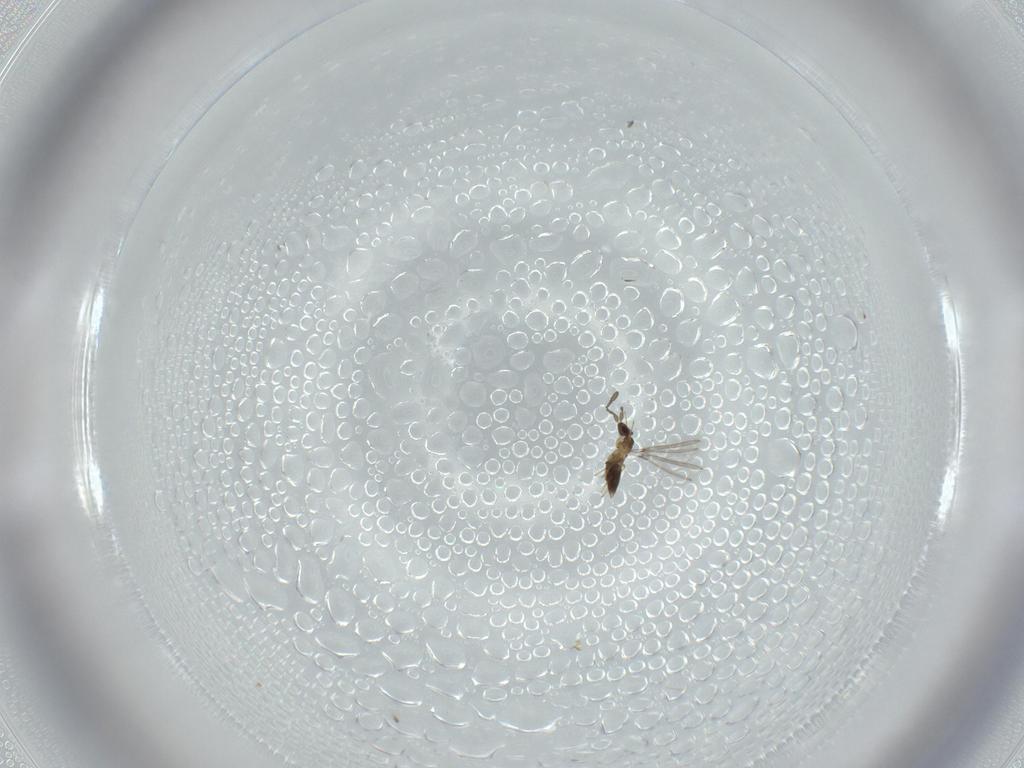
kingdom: Animalia
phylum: Arthropoda
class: Insecta
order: Hymenoptera
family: Mymaridae
